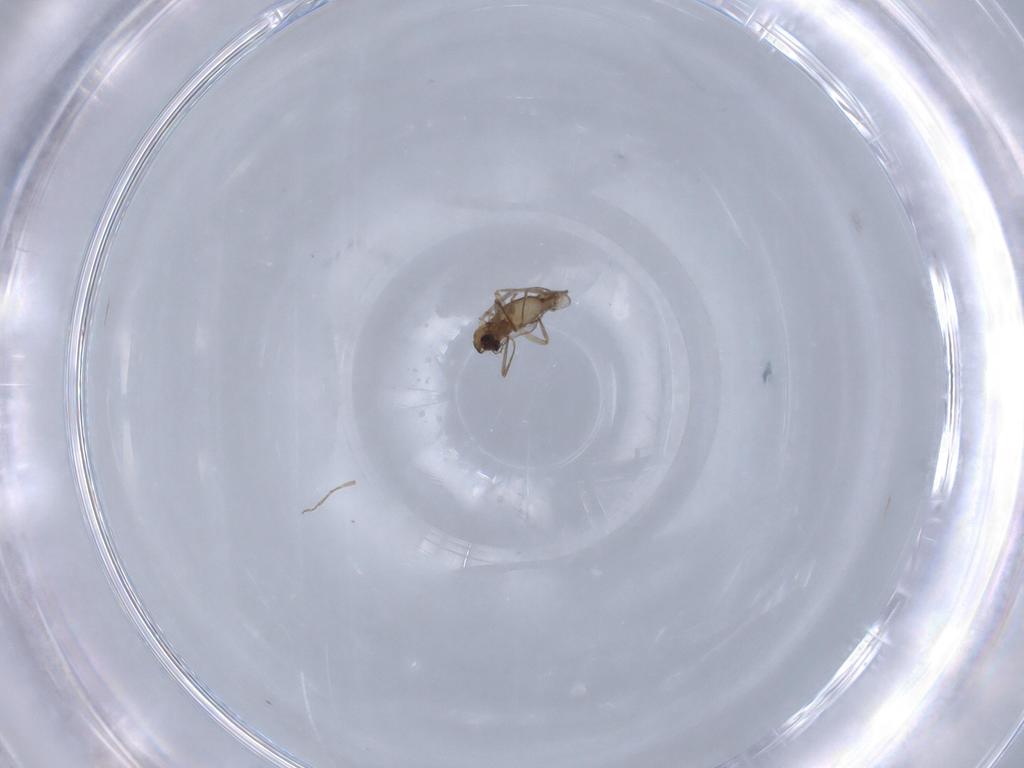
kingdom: Animalia
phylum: Arthropoda
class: Insecta
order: Diptera
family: Chironomidae
